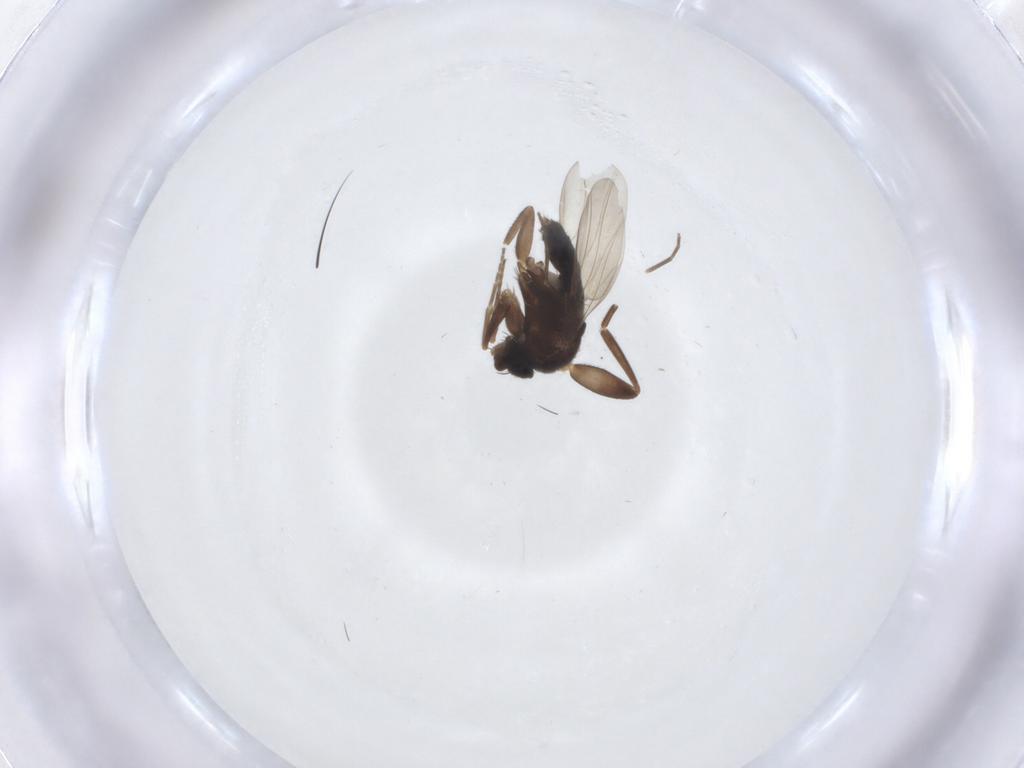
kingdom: Animalia
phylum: Arthropoda
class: Insecta
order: Diptera
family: Phoridae
